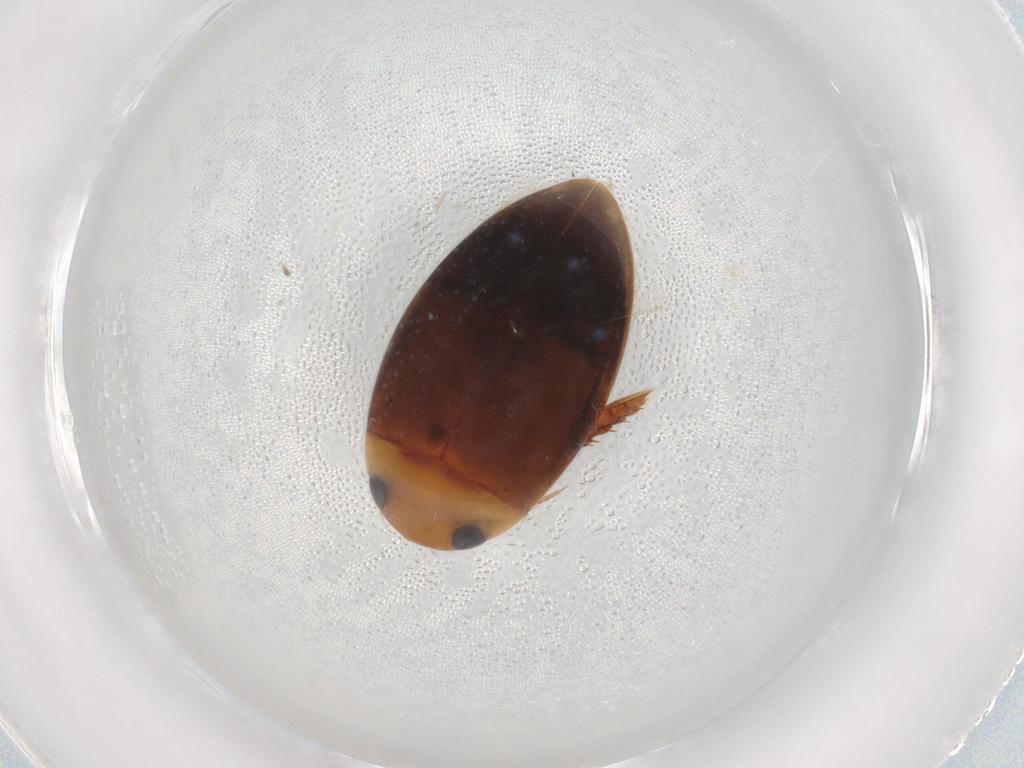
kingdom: Animalia
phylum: Arthropoda
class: Insecta
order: Coleoptera
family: Dytiscidae
